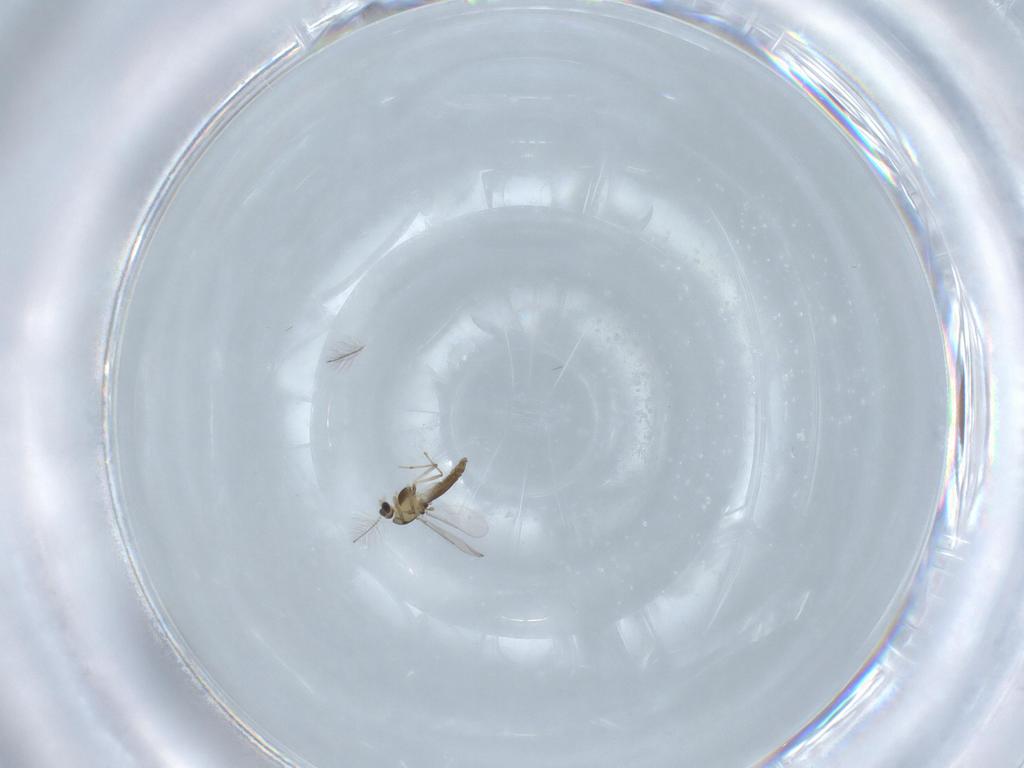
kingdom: Animalia
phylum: Arthropoda
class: Insecta
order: Diptera
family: Chironomidae
